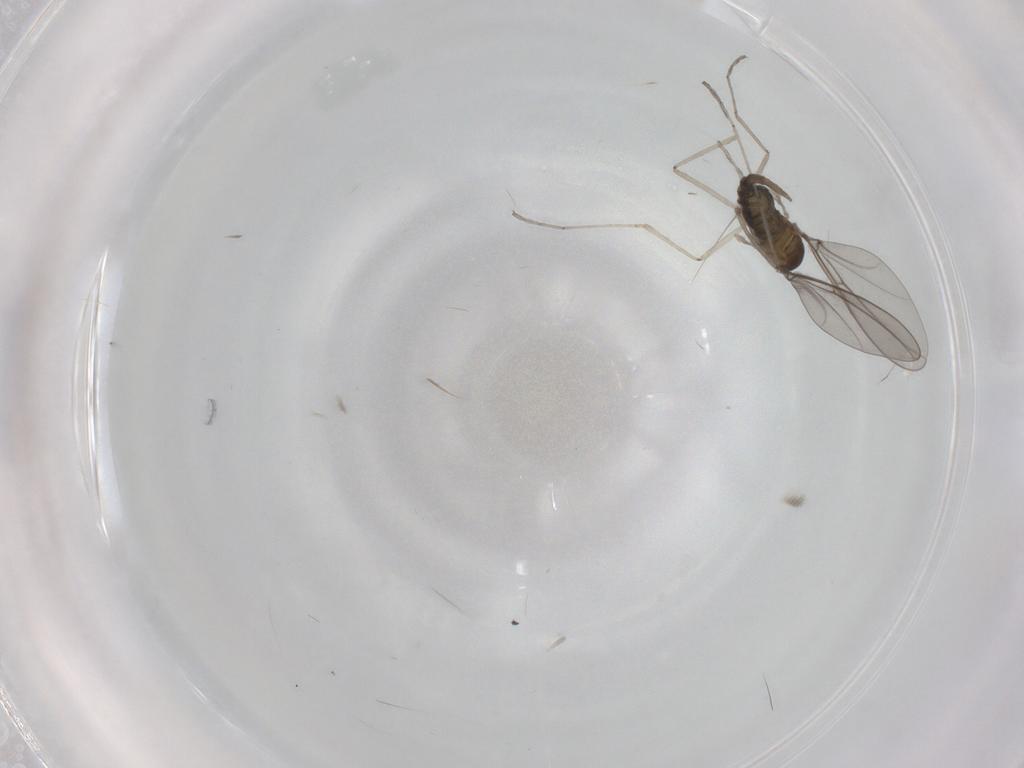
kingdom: Animalia
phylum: Arthropoda
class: Insecta
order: Diptera
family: Cecidomyiidae
